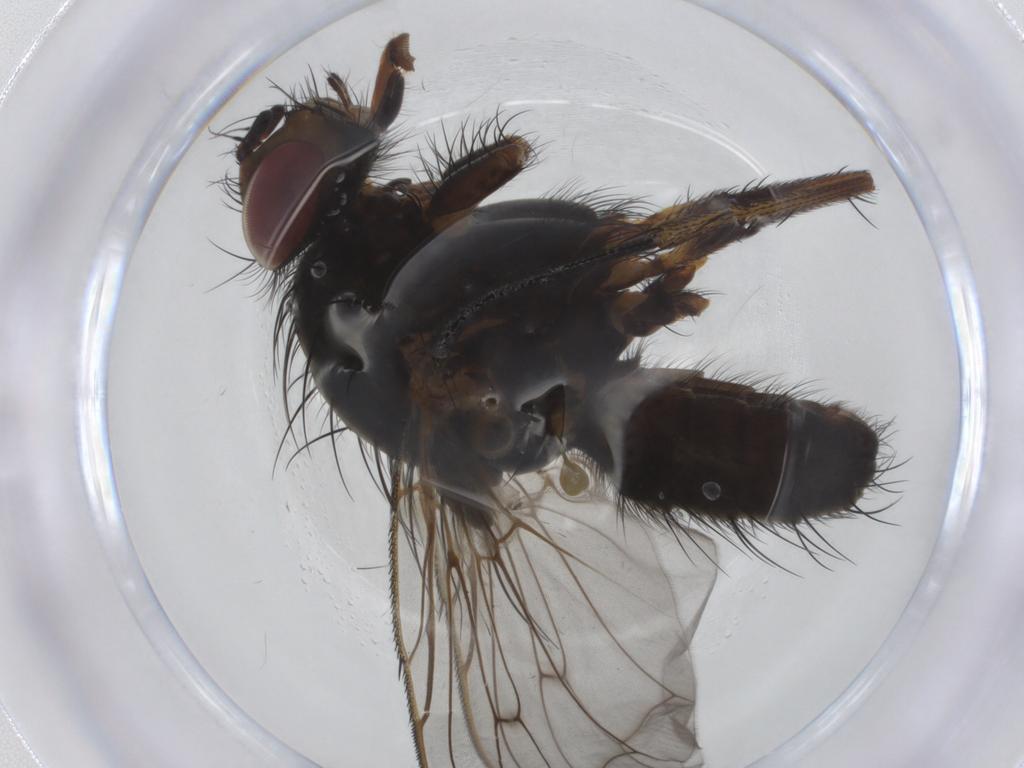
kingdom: Animalia
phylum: Arthropoda
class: Insecta
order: Diptera
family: Anthomyiidae
